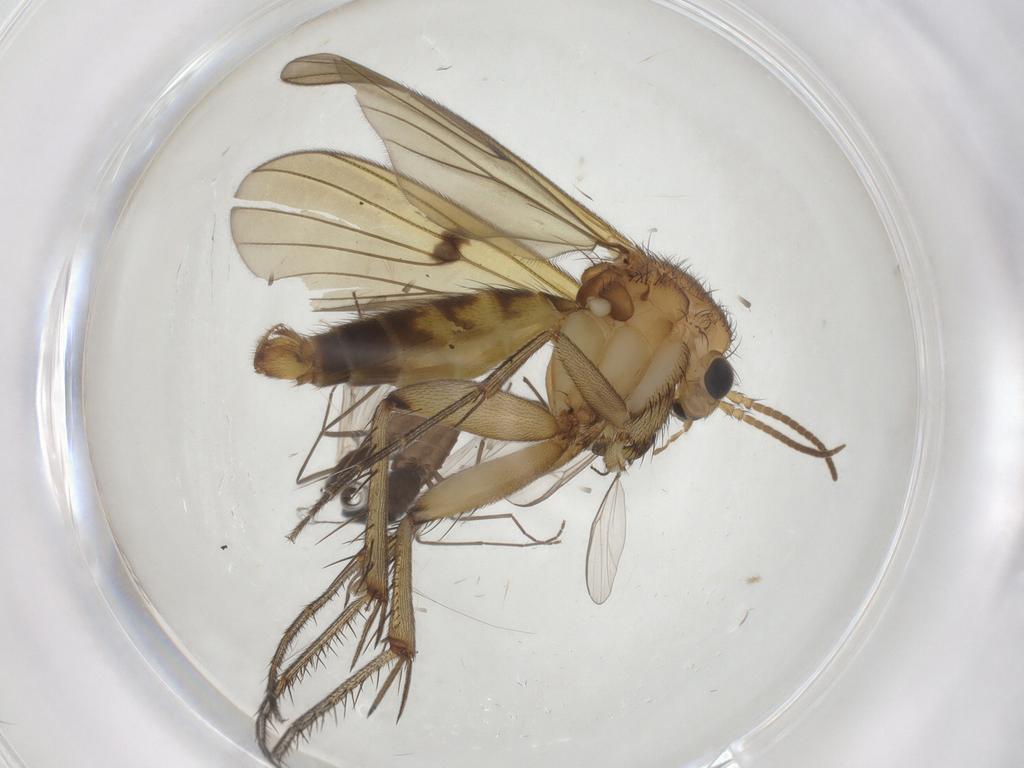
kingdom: Animalia
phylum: Arthropoda
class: Insecta
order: Diptera
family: Chironomidae
